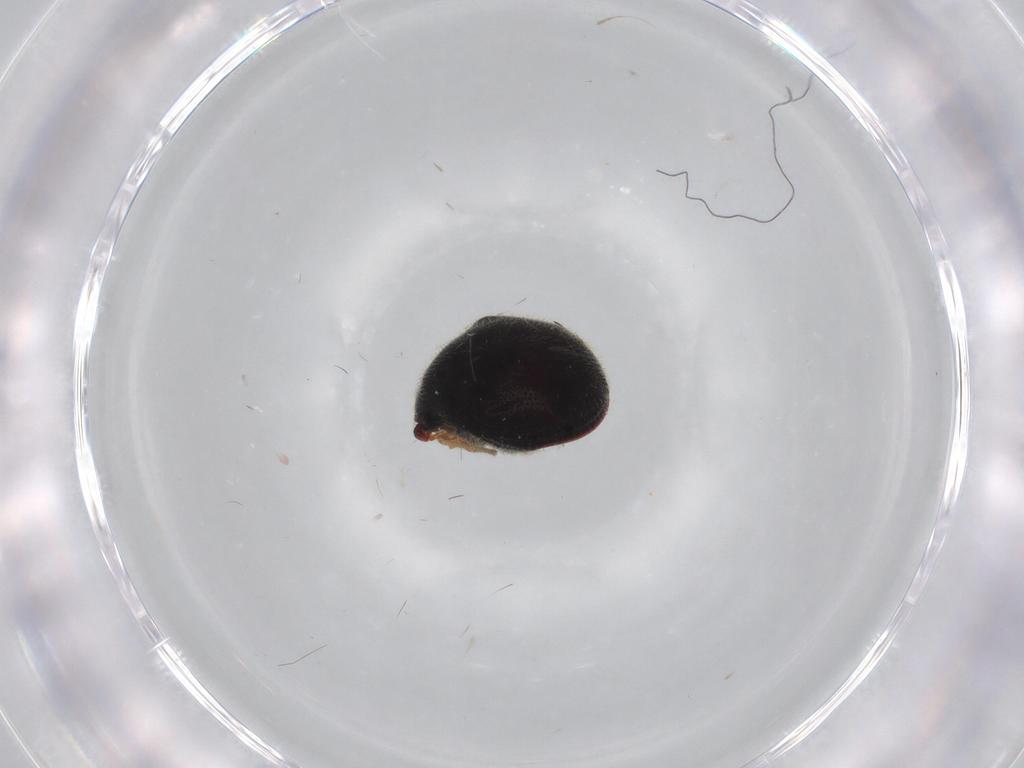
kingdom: Animalia
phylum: Arthropoda
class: Insecta
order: Coleoptera
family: Ptinidae
